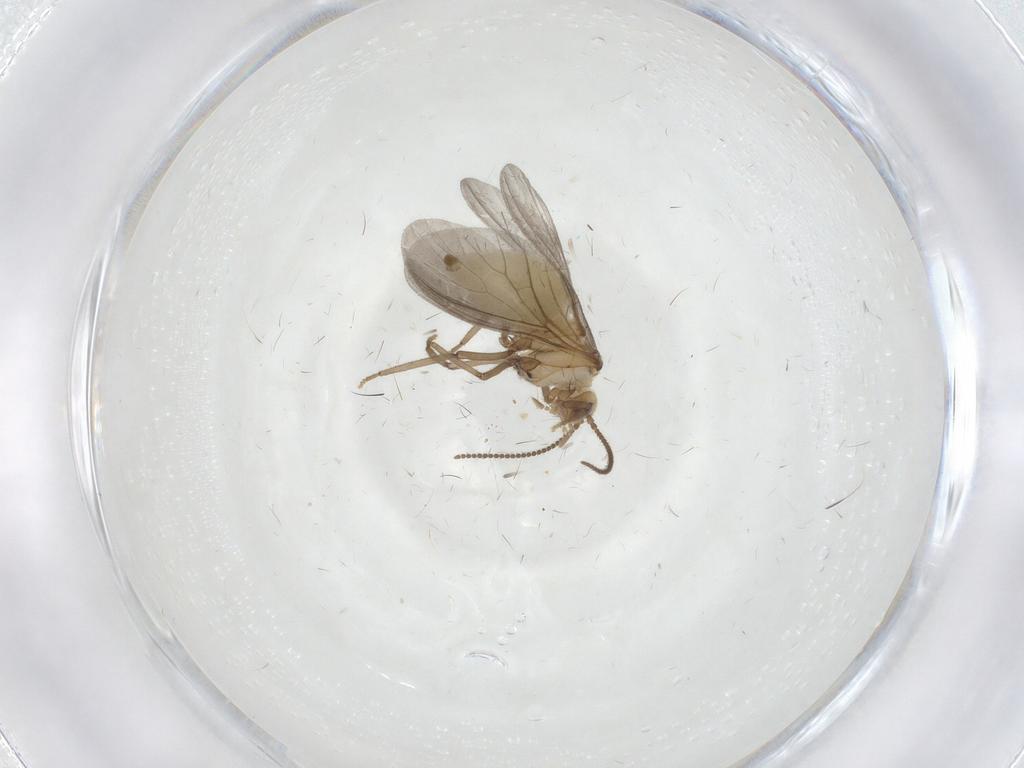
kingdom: Animalia
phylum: Arthropoda
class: Insecta
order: Neuroptera
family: Coniopterygidae
